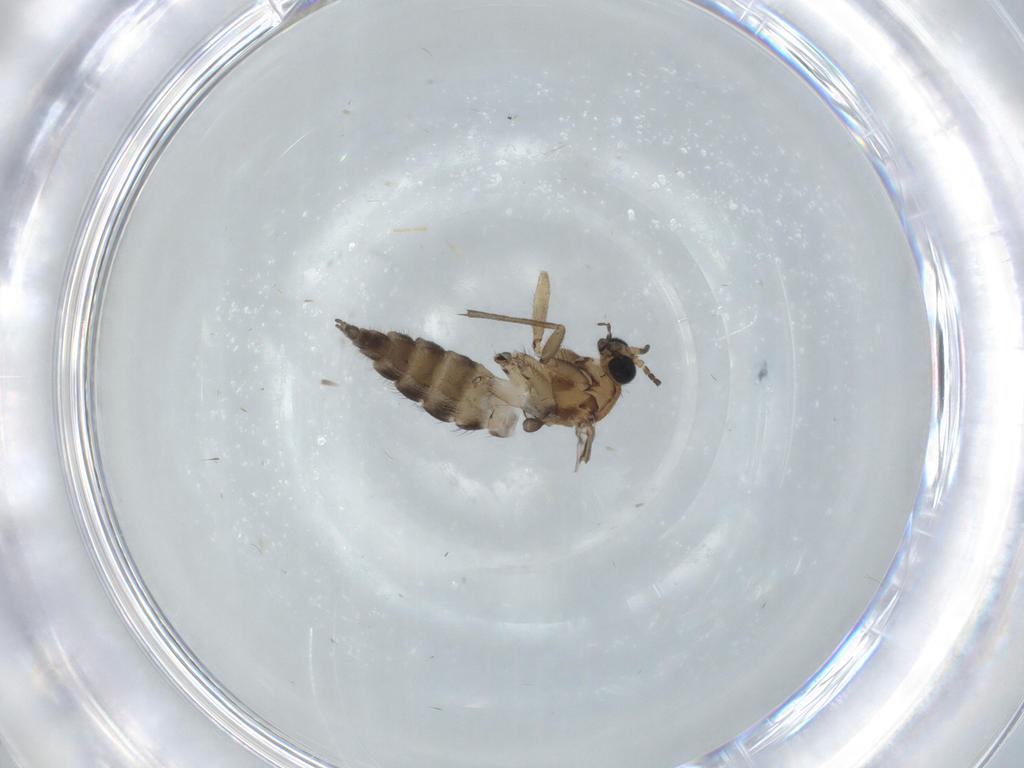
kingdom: Animalia
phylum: Arthropoda
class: Insecta
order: Diptera
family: Sciaridae
